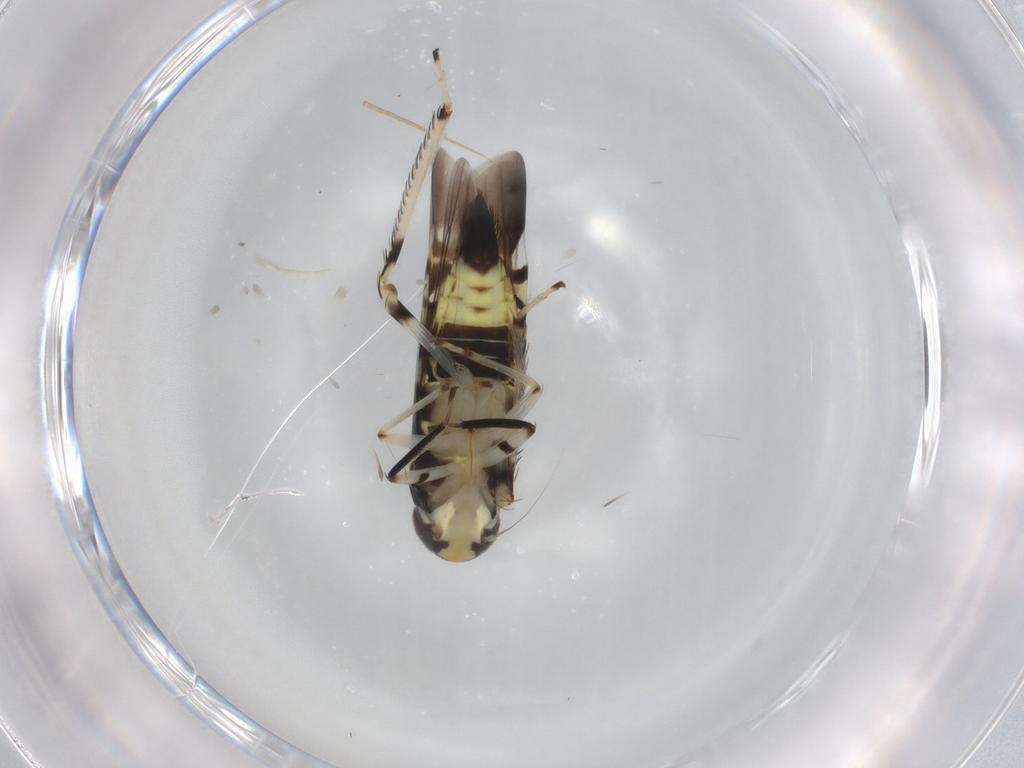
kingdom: Animalia
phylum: Arthropoda
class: Insecta
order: Hemiptera
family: Cicadellidae
